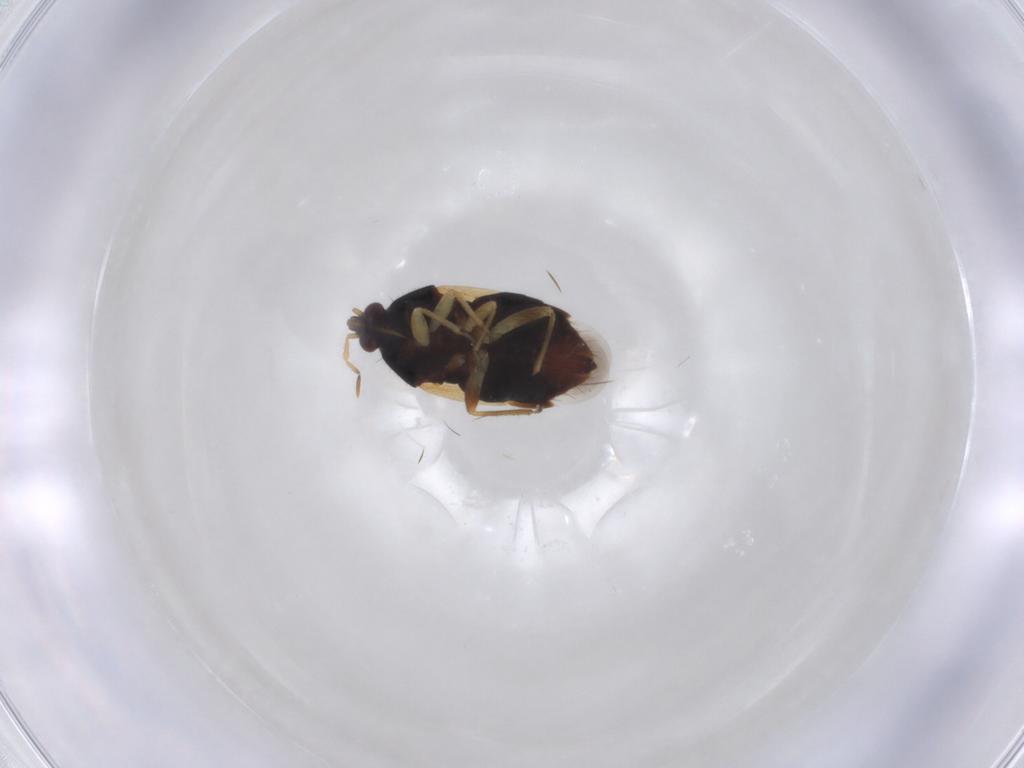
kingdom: Animalia
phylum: Arthropoda
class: Insecta
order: Hemiptera
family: Anthocoridae
